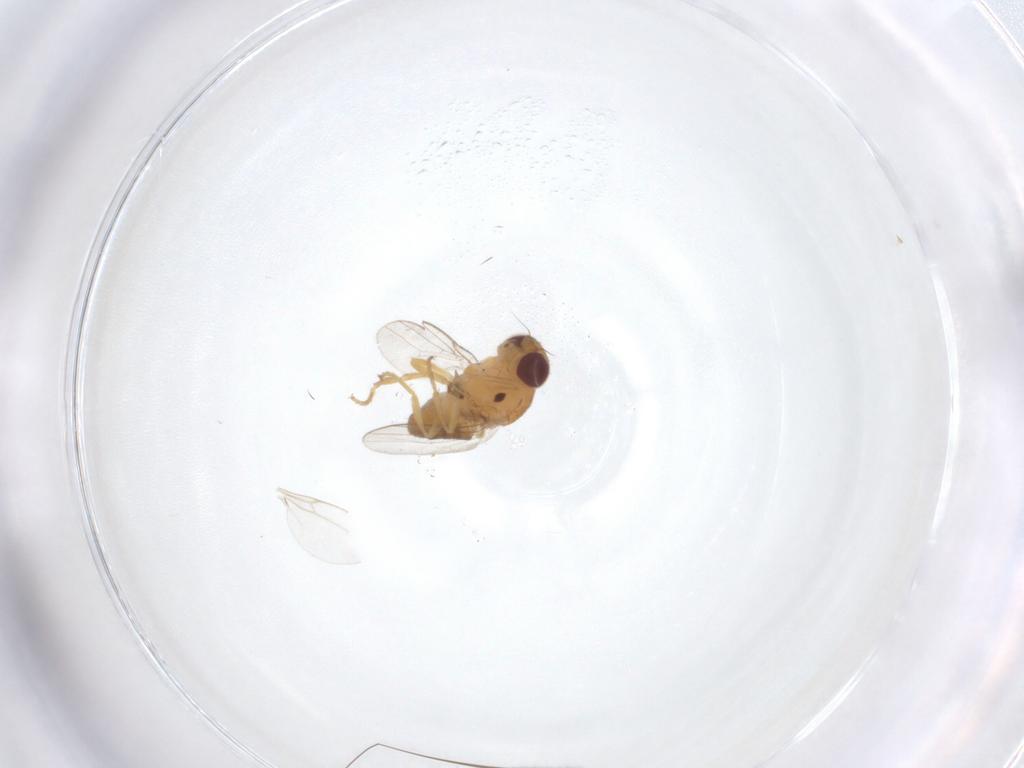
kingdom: Animalia
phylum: Arthropoda
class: Insecta
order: Diptera
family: Chloropidae
